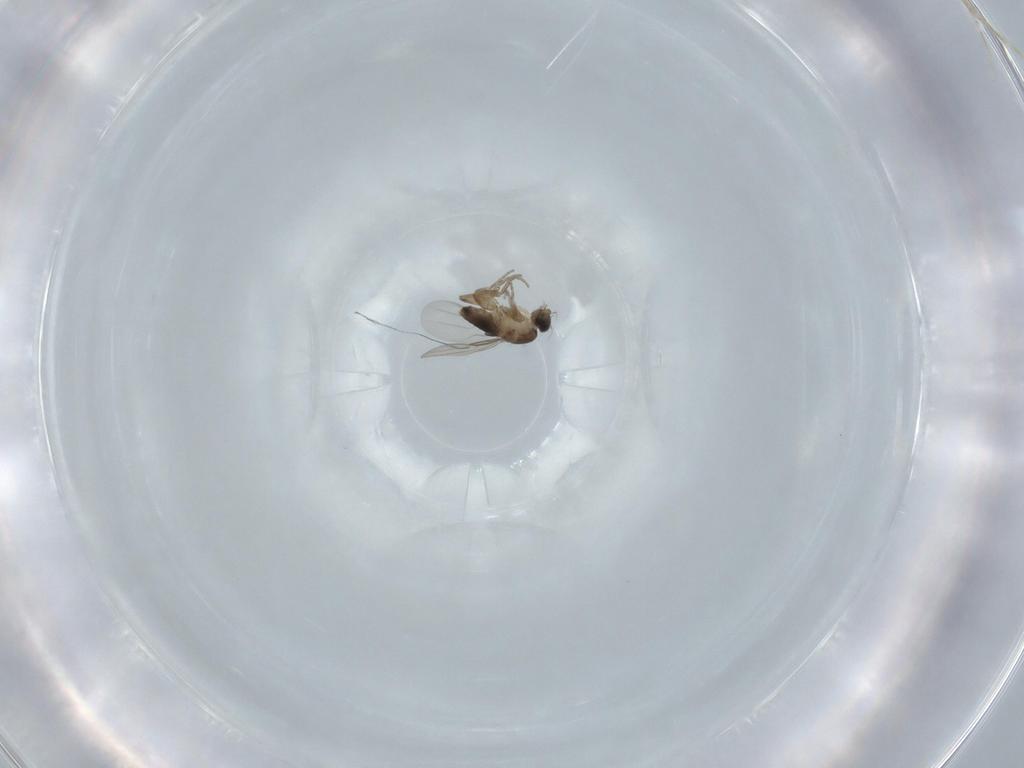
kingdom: Animalia
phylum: Arthropoda
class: Insecta
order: Diptera
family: Phoridae
